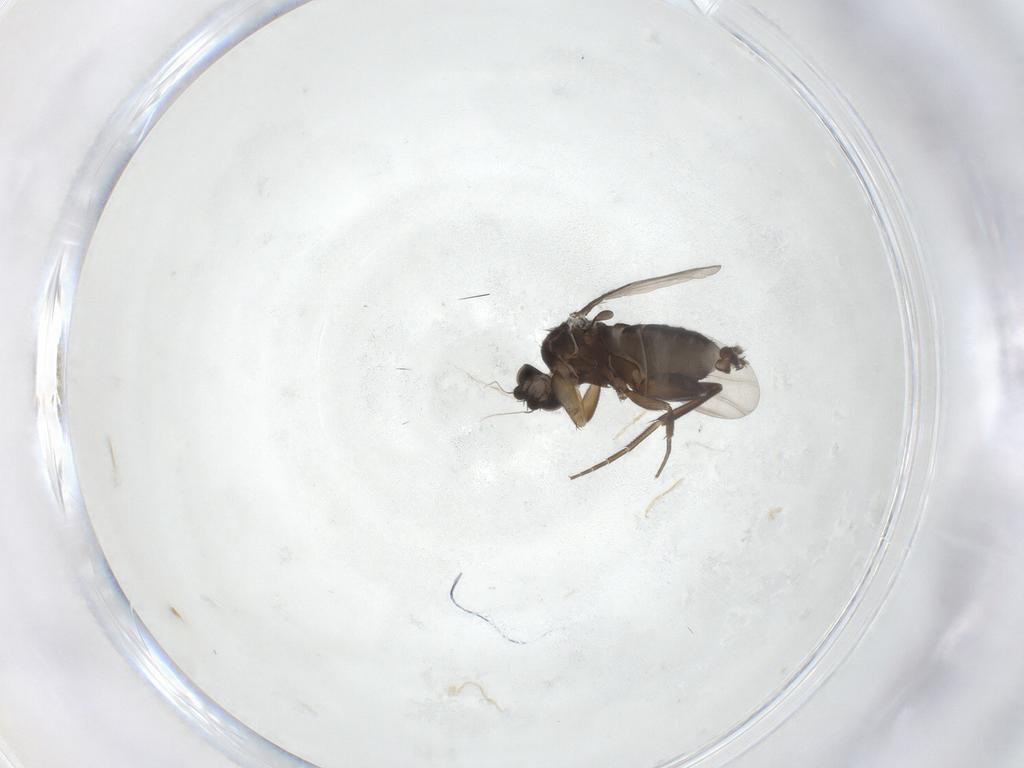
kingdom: Animalia
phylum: Arthropoda
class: Insecta
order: Diptera
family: Phoridae
